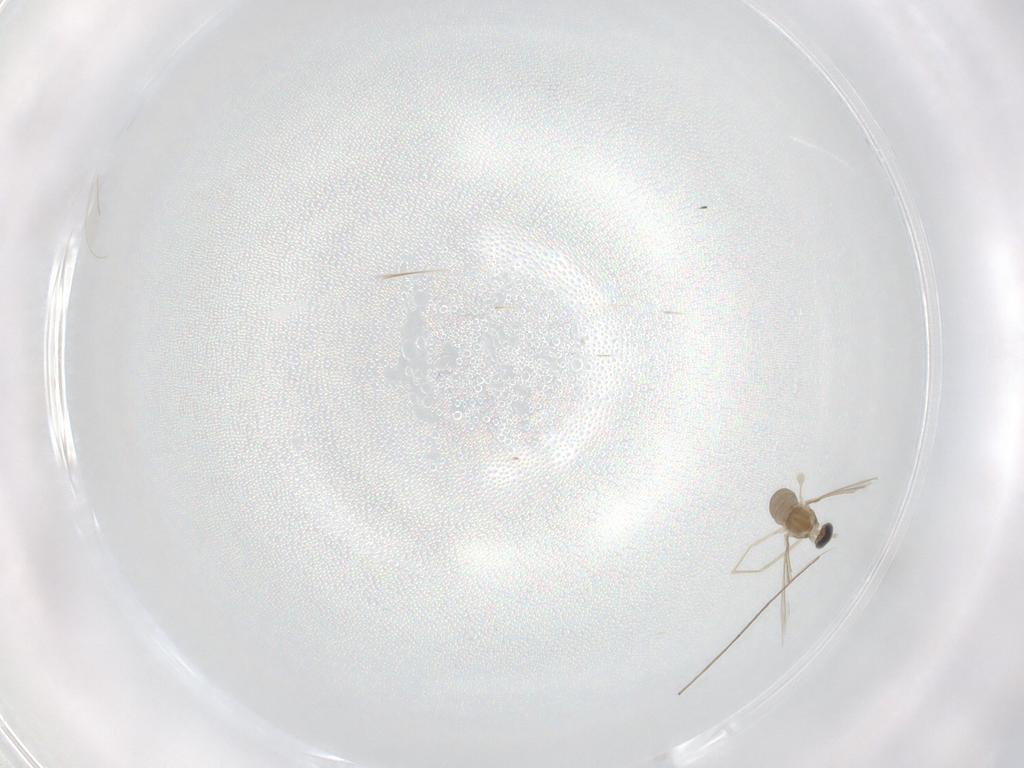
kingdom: Animalia
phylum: Arthropoda
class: Insecta
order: Diptera
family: Cecidomyiidae
